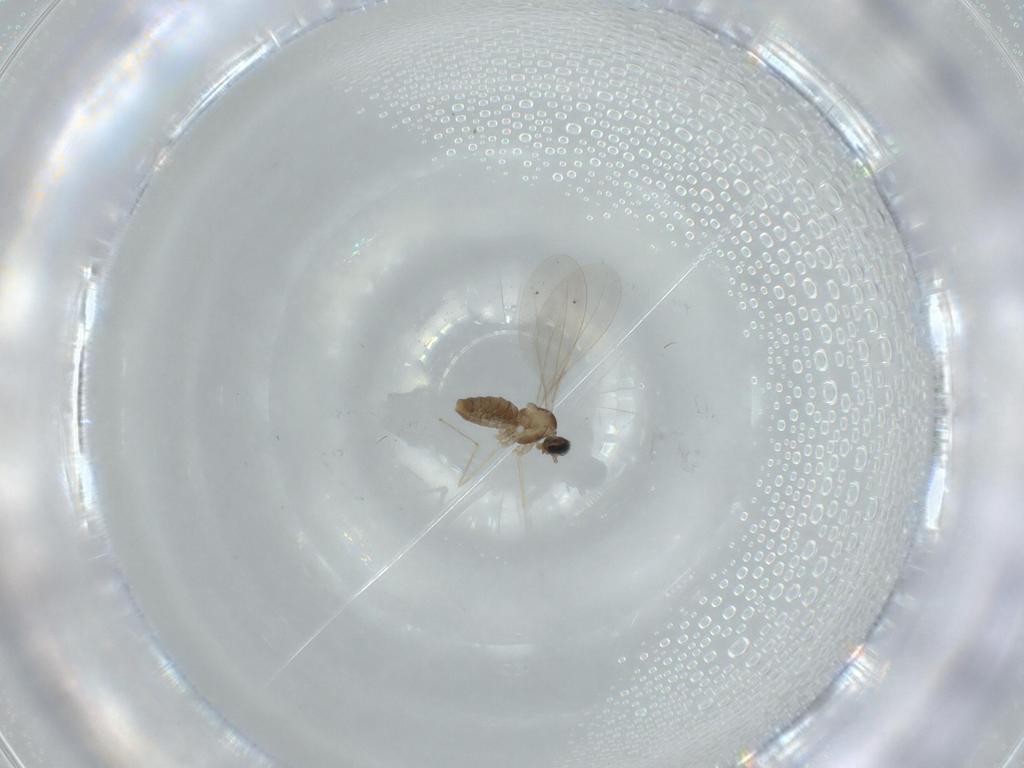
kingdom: Animalia
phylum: Arthropoda
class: Insecta
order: Diptera
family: Cecidomyiidae
